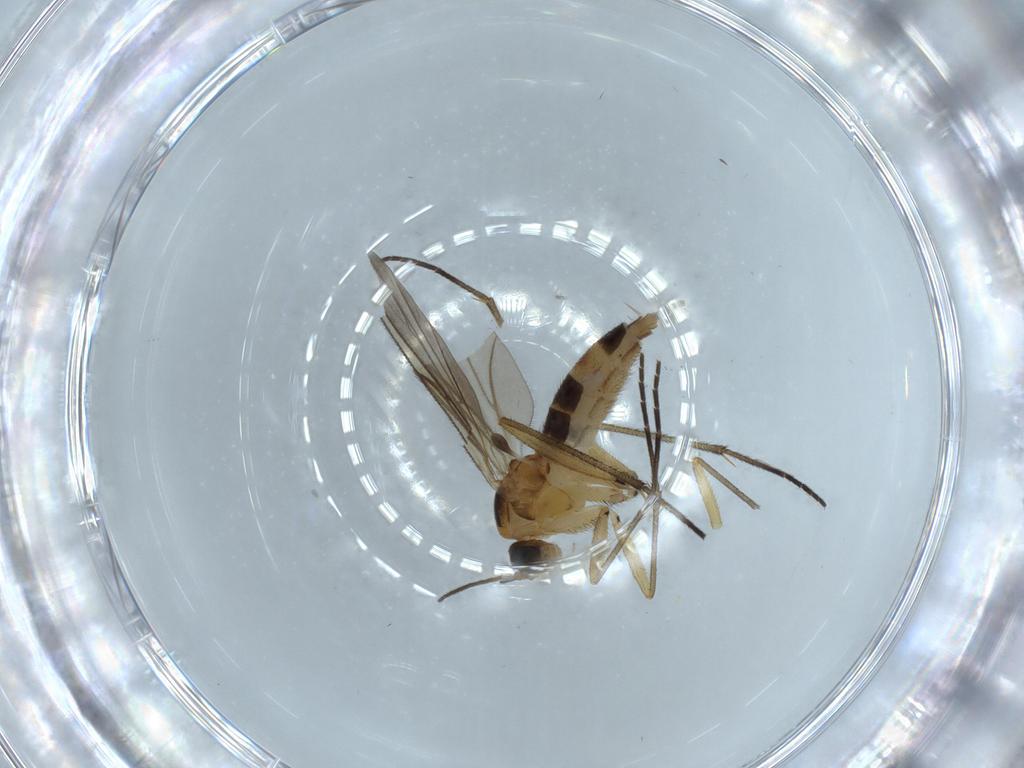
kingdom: Animalia
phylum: Arthropoda
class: Insecta
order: Diptera
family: Sciaridae
